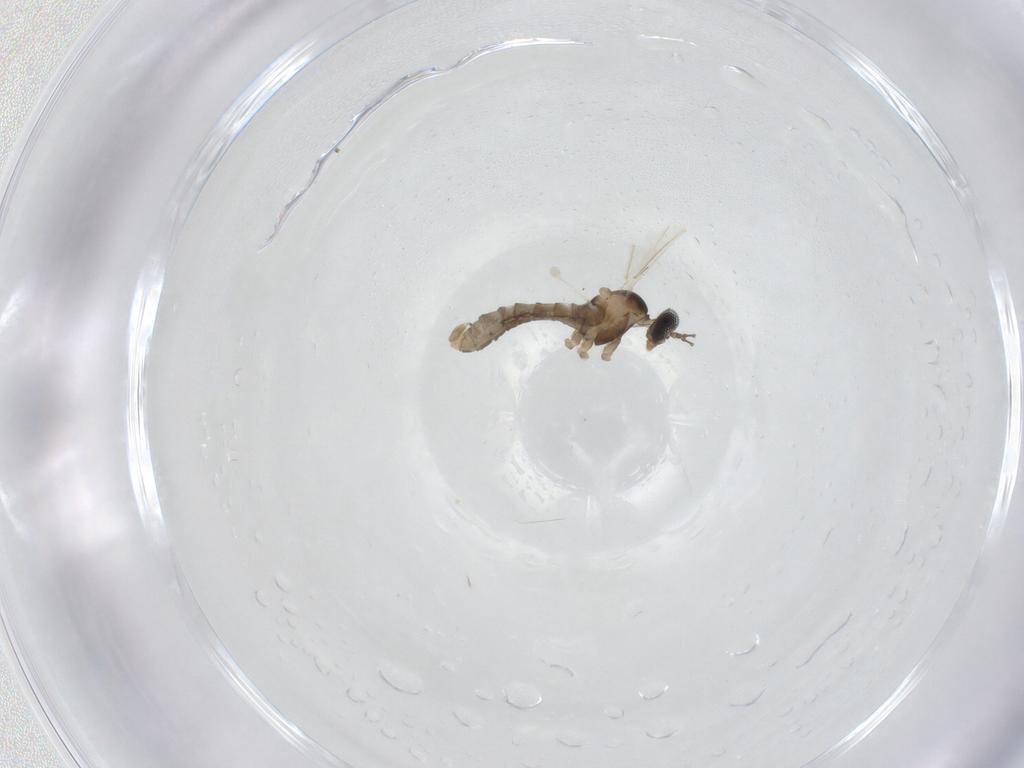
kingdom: Animalia
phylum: Arthropoda
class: Insecta
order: Diptera
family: Cecidomyiidae
